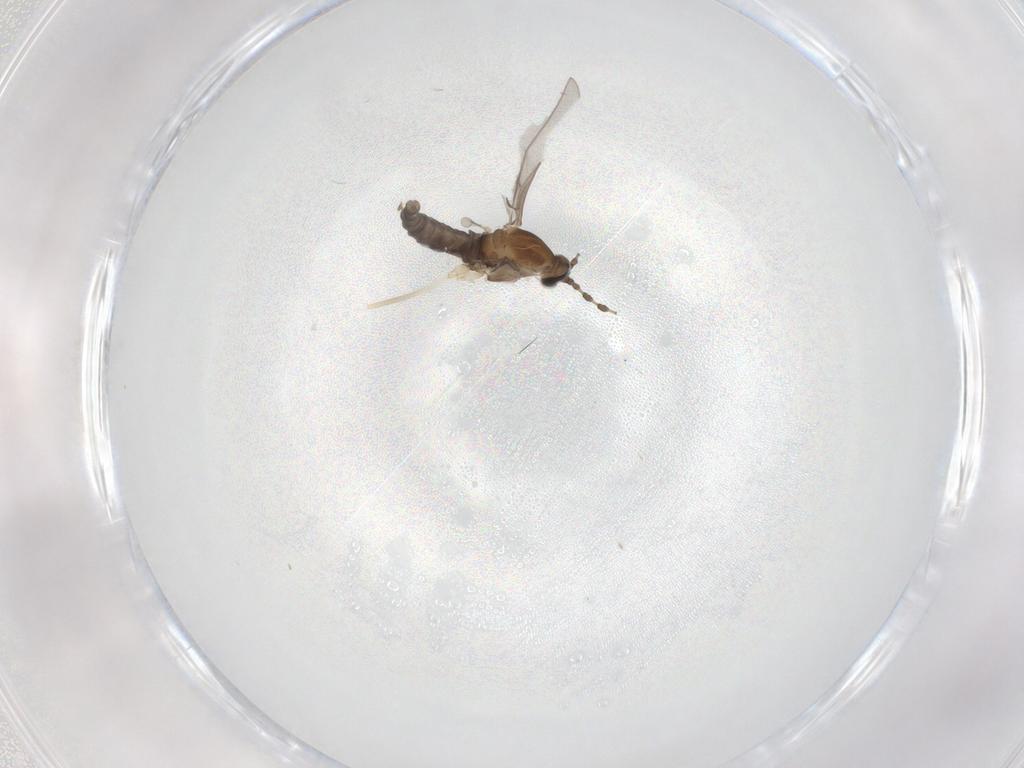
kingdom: Animalia
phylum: Arthropoda
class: Insecta
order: Diptera
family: Cecidomyiidae
